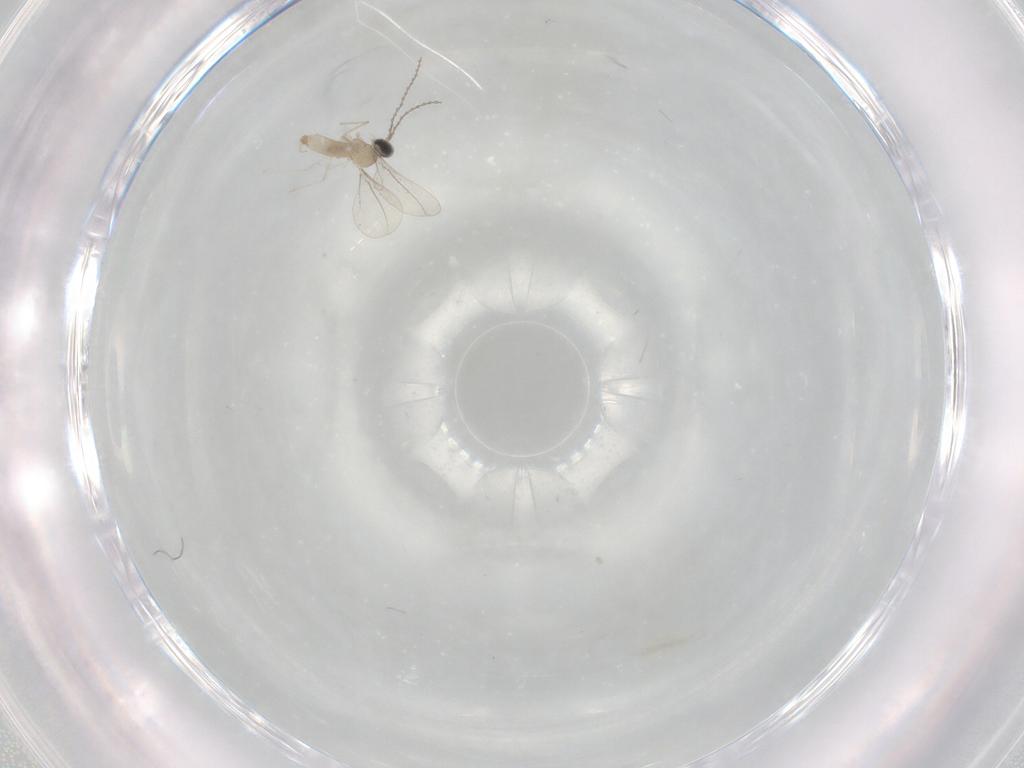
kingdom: Animalia
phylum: Arthropoda
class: Insecta
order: Diptera
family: Cecidomyiidae
